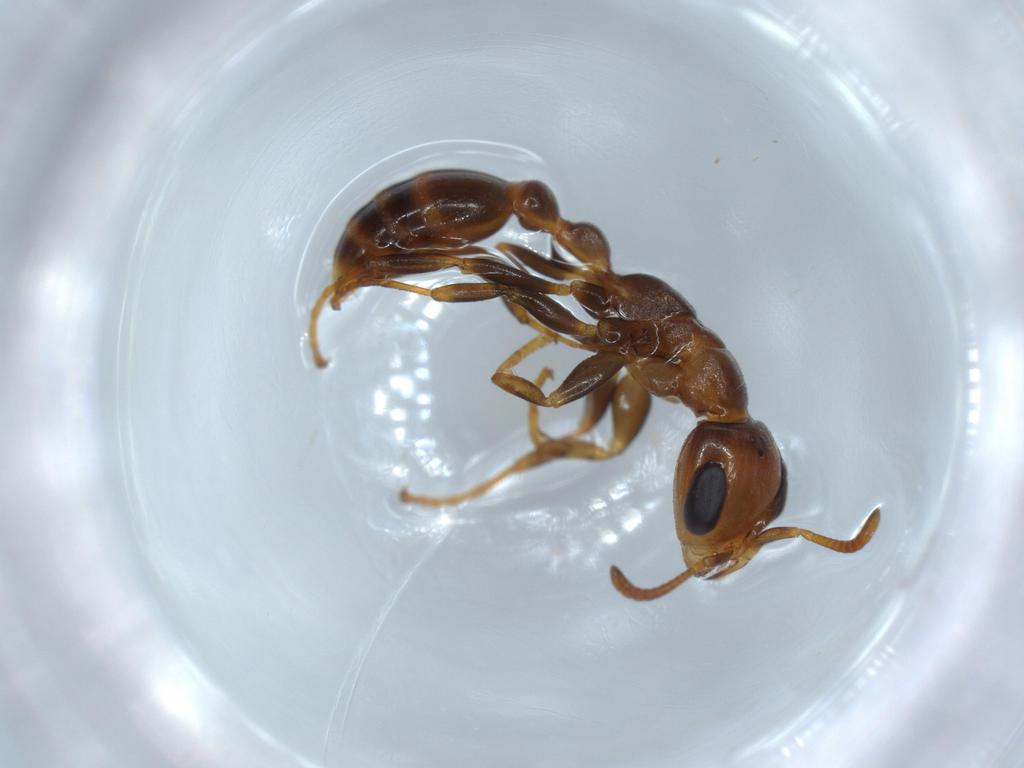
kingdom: Animalia
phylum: Arthropoda
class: Insecta
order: Hymenoptera
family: Formicidae
